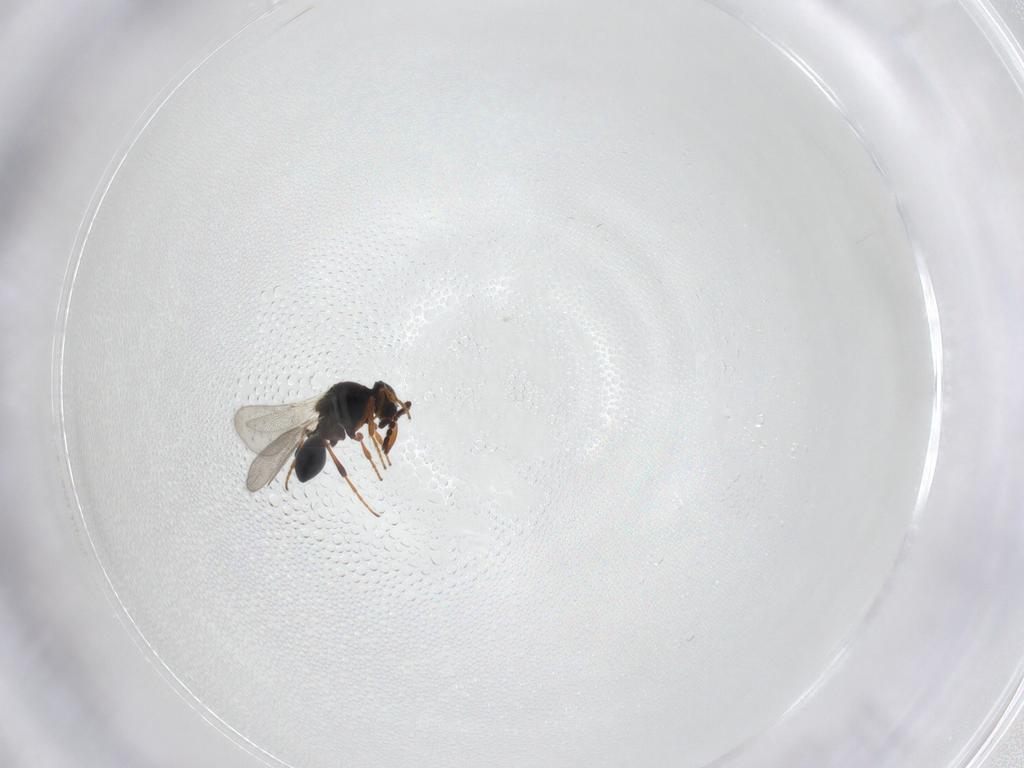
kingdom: Animalia
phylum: Arthropoda
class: Insecta
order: Hymenoptera
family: Platygastridae
